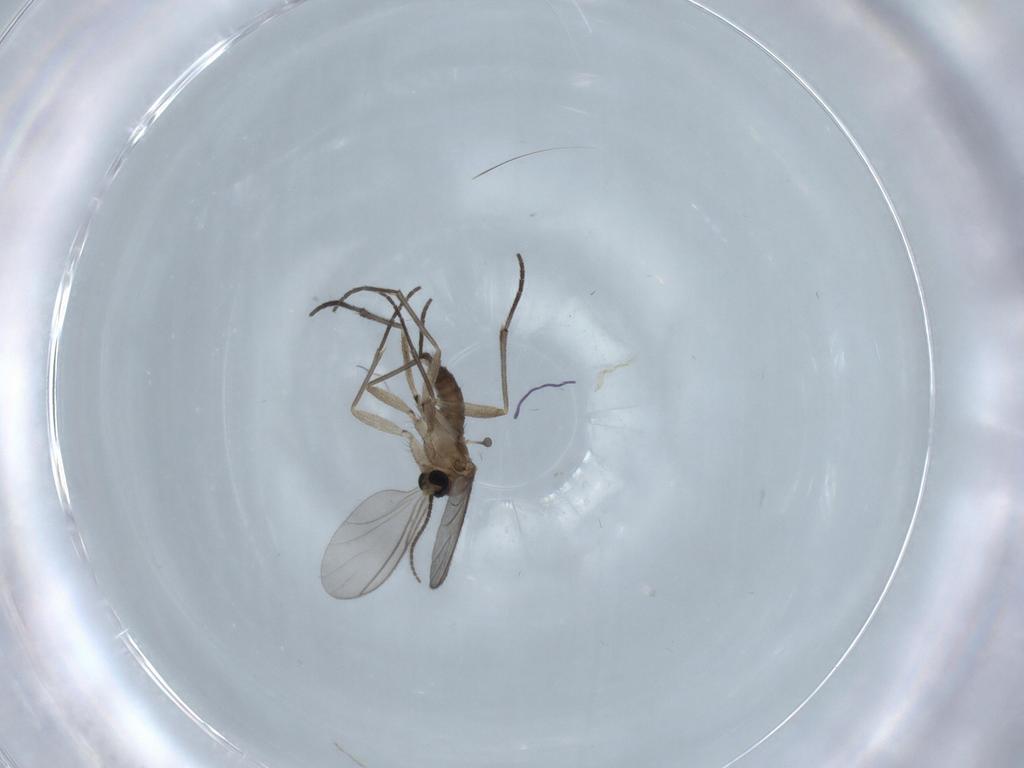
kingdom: Animalia
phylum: Arthropoda
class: Insecta
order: Diptera
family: Sciaridae
